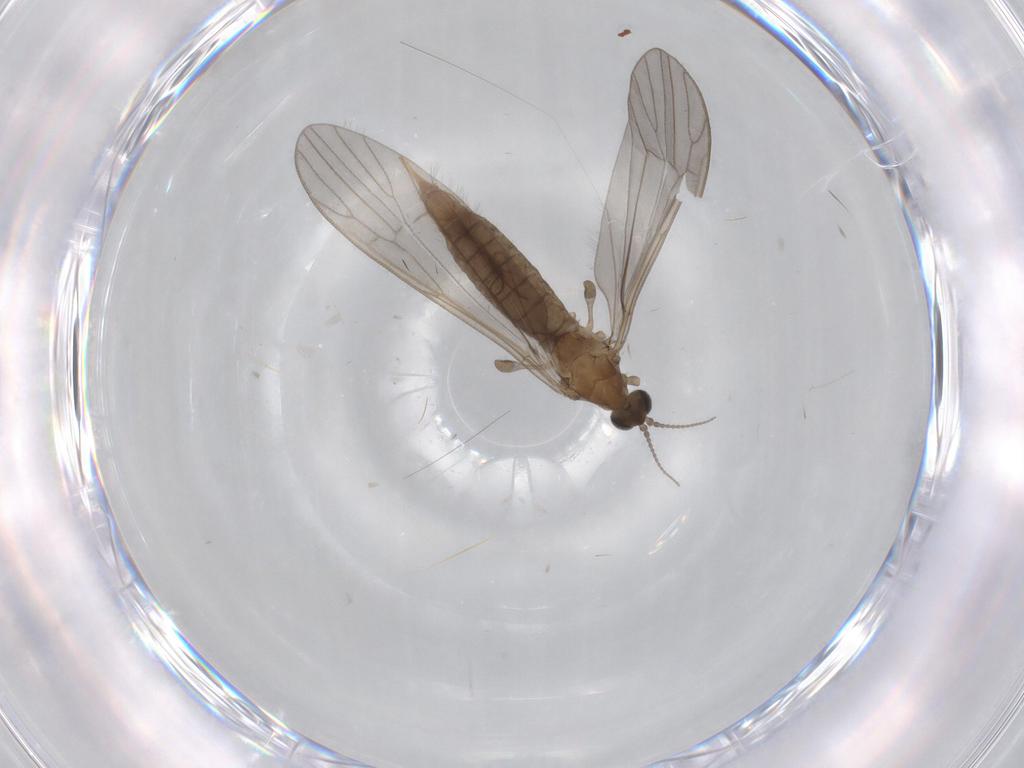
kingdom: Animalia
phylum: Arthropoda
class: Insecta
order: Diptera
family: Limoniidae
